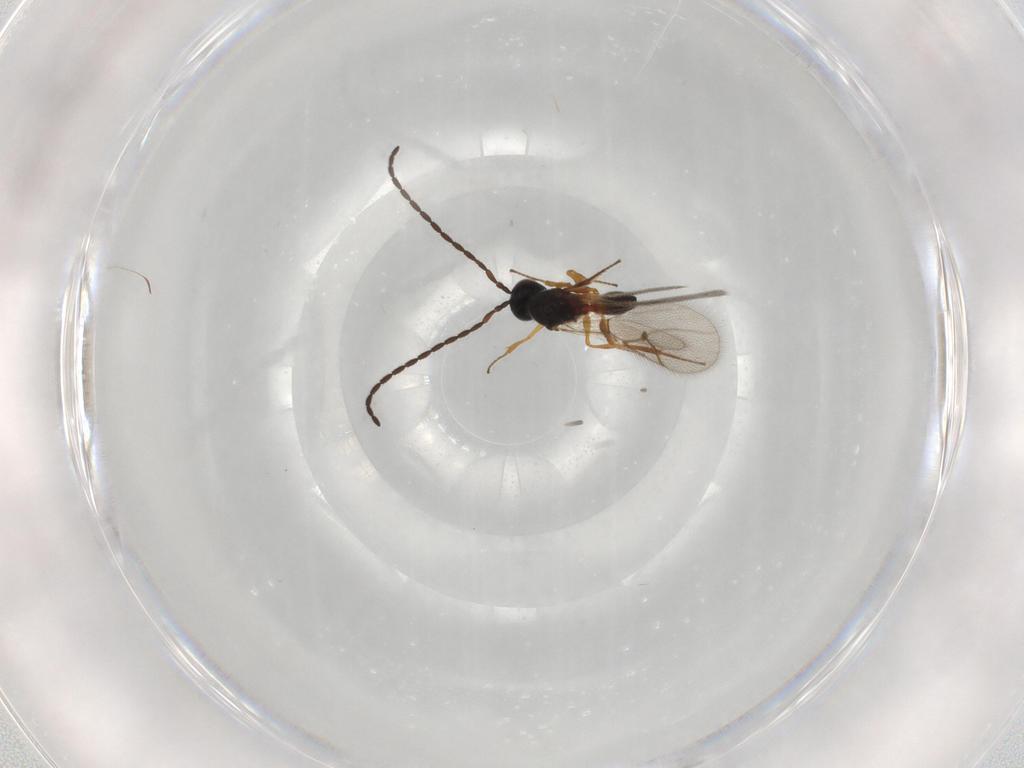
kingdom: Animalia
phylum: Arthropoda
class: Insecta
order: Hymenoptera
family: Figitidae
